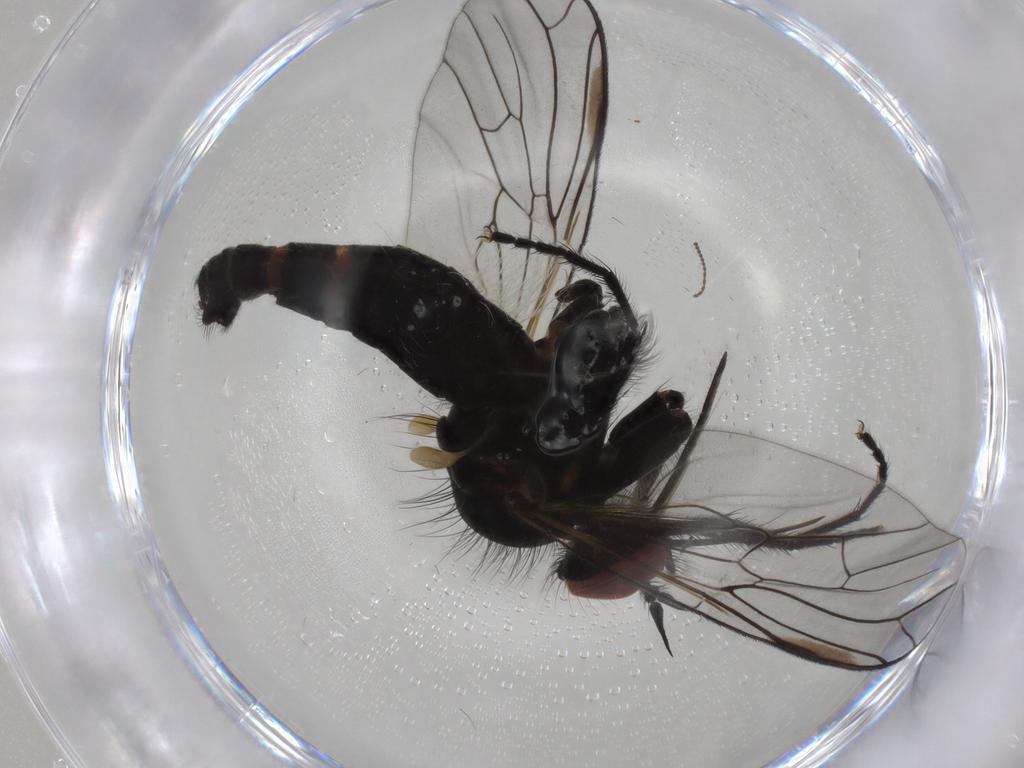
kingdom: Animalia
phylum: Arthropoda
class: Insecta
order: Diptera
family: Empididae
